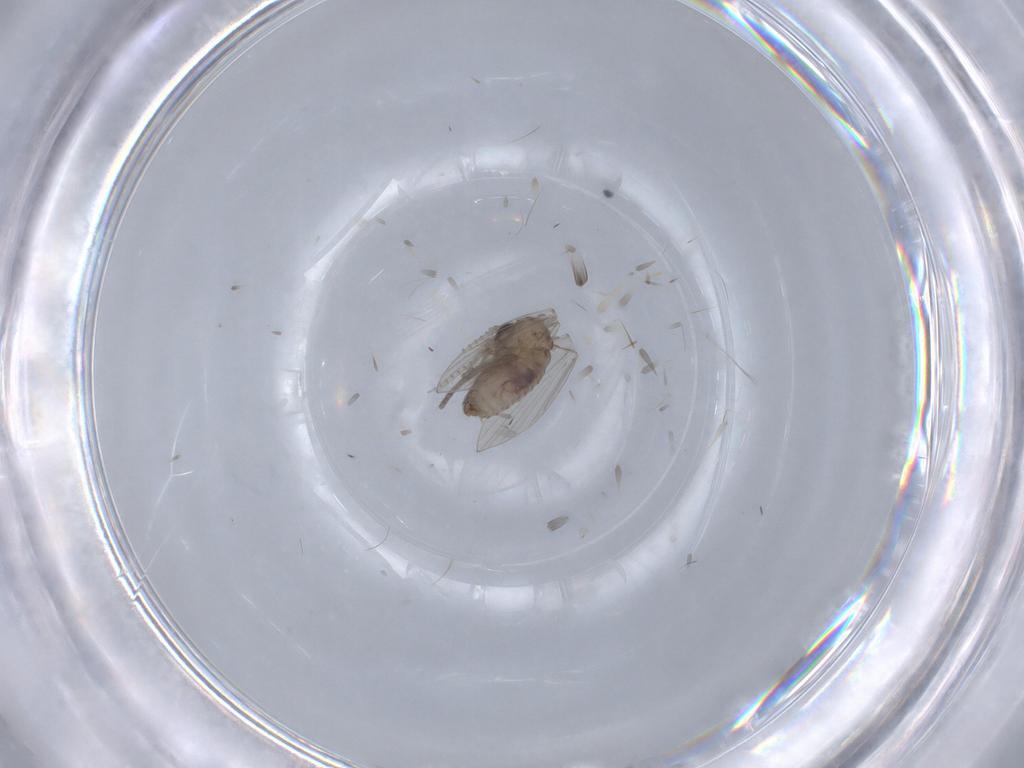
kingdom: Animalia
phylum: Arthropoda
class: Insecta
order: Diptera
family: Psychodidae
